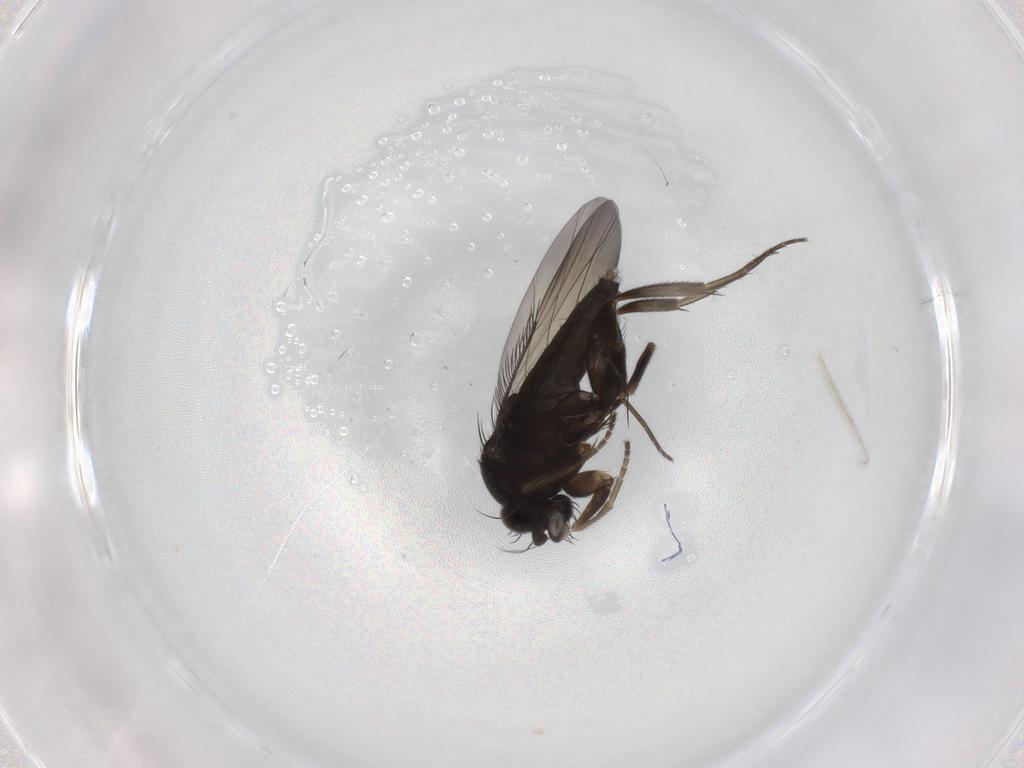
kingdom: Animalia
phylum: Arthropoda
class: Insecta
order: Diptera
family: Phoridae
